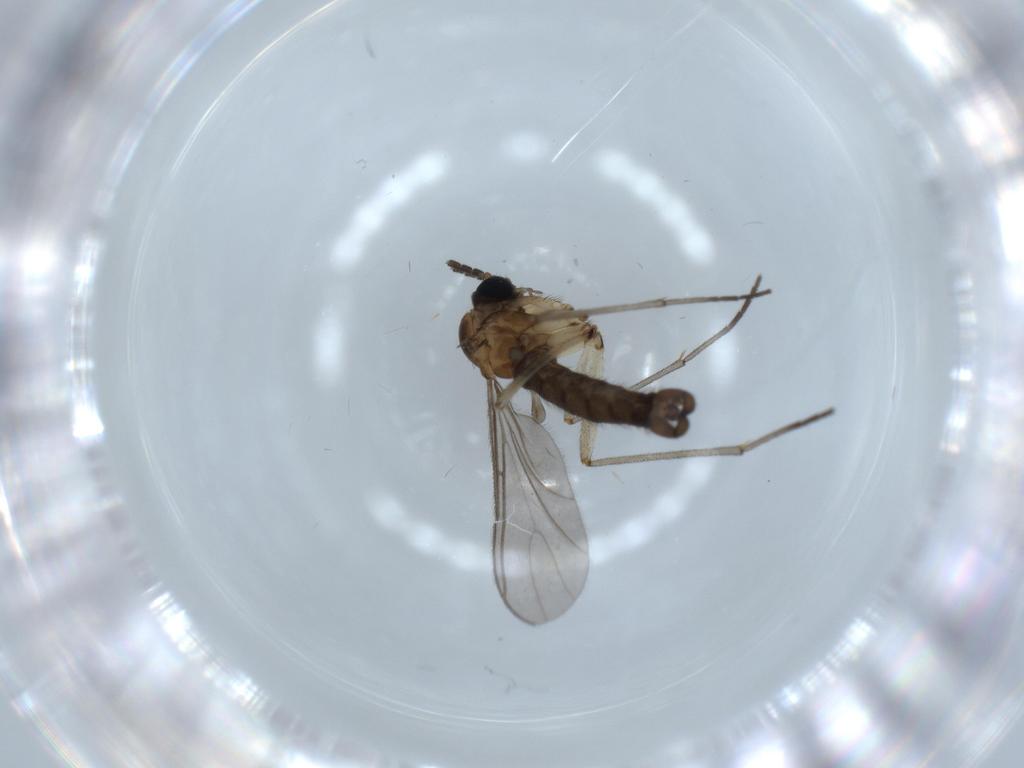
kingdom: Animalia
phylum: Arthropoda
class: Insecta
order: Diptera
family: Sciaridae
